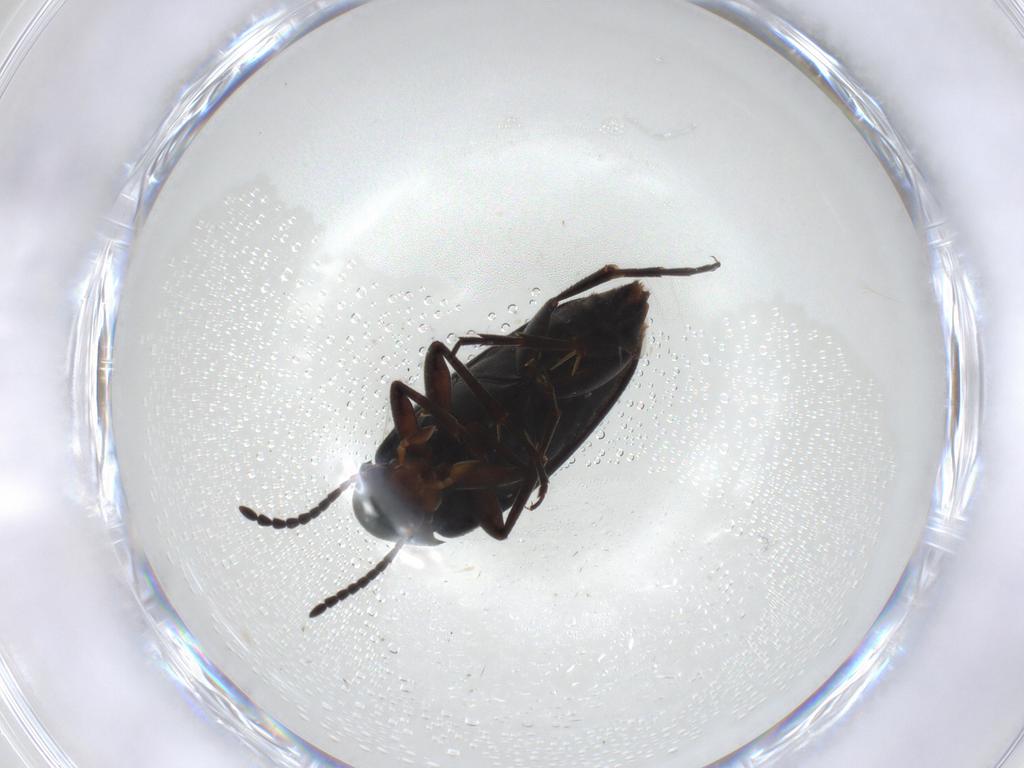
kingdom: Animalia
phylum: Arthropoda
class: Insecta
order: Coleoptera
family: Scraptiidae
